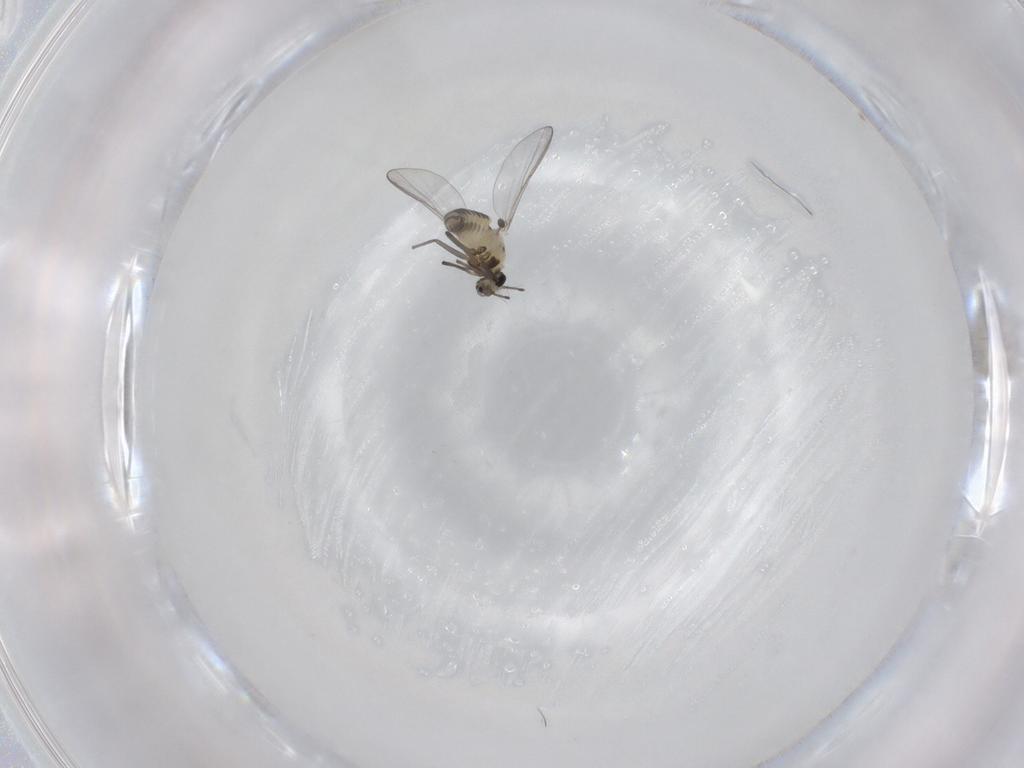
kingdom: Animalia
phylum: Arthropoda
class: Insecta
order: Diptera
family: Chironomidae
